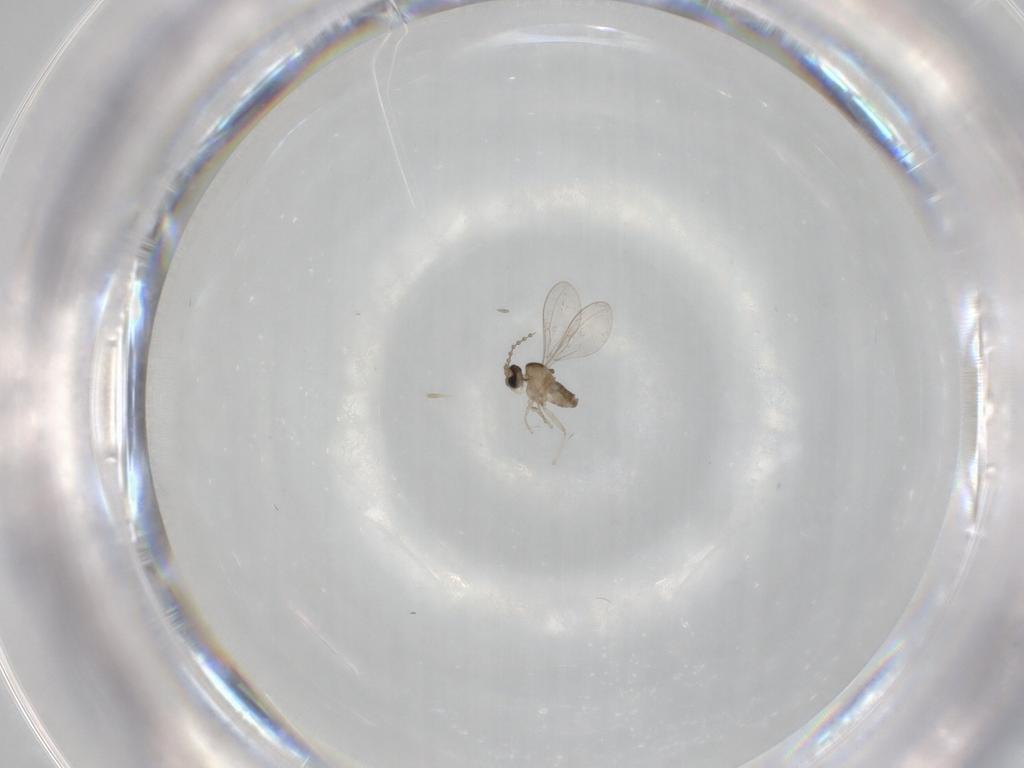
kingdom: Animalia
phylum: Arthropoda
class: Insecta
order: Diptera
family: Cecidomyiidae
